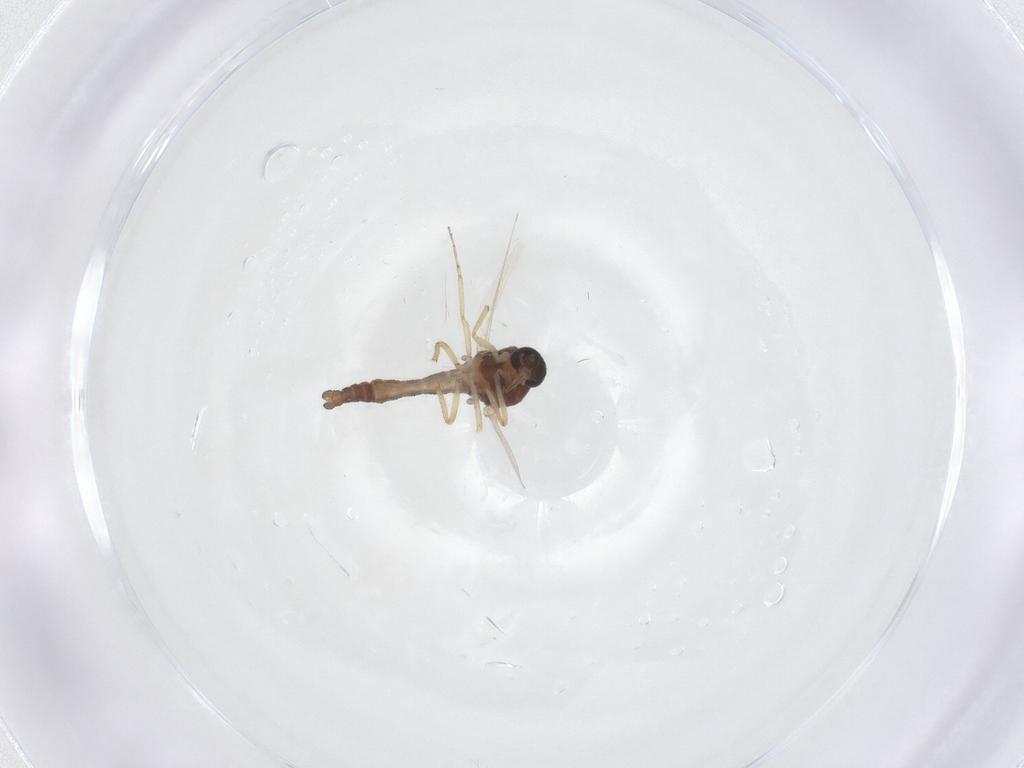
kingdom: Animalia
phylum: Arthropoda
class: Insecta
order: Diptera
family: Ceratopogonidae
